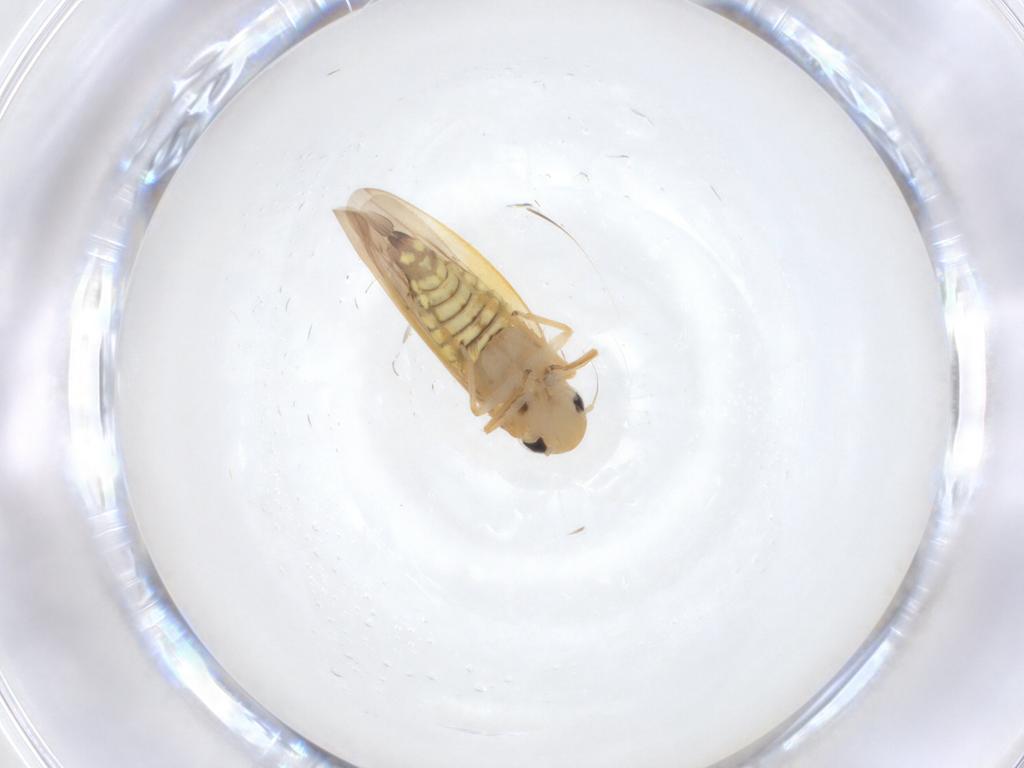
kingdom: Animalia
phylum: Arthropoda
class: Insecta
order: Hemiptera
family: Cicadellidae
